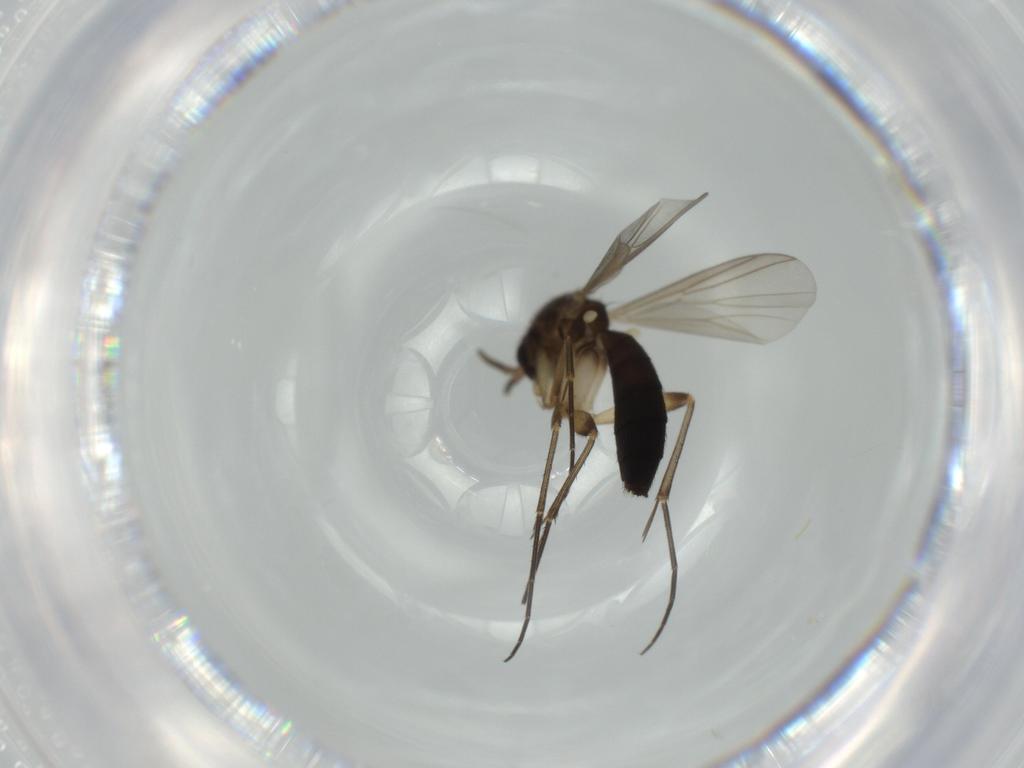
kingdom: Animalia
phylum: Arthropoda
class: Insecta
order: Diptera
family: Mycetophilidae
